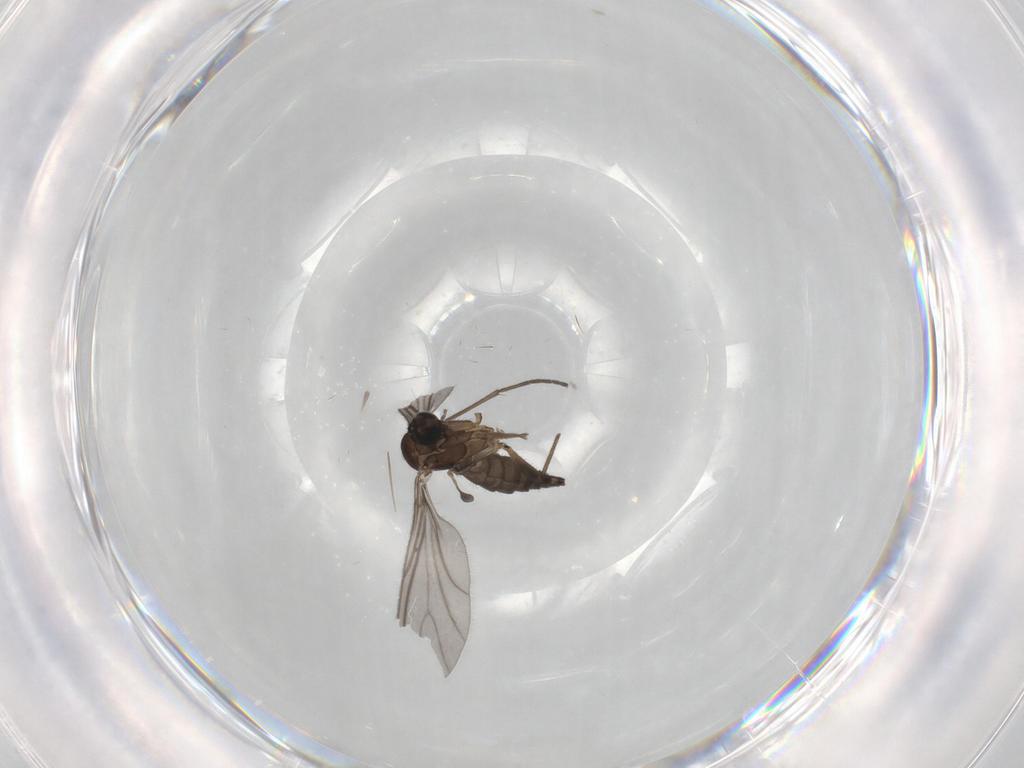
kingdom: Animalia
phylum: Arthropoda
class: Insecta
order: Diptera
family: Sciaridae
